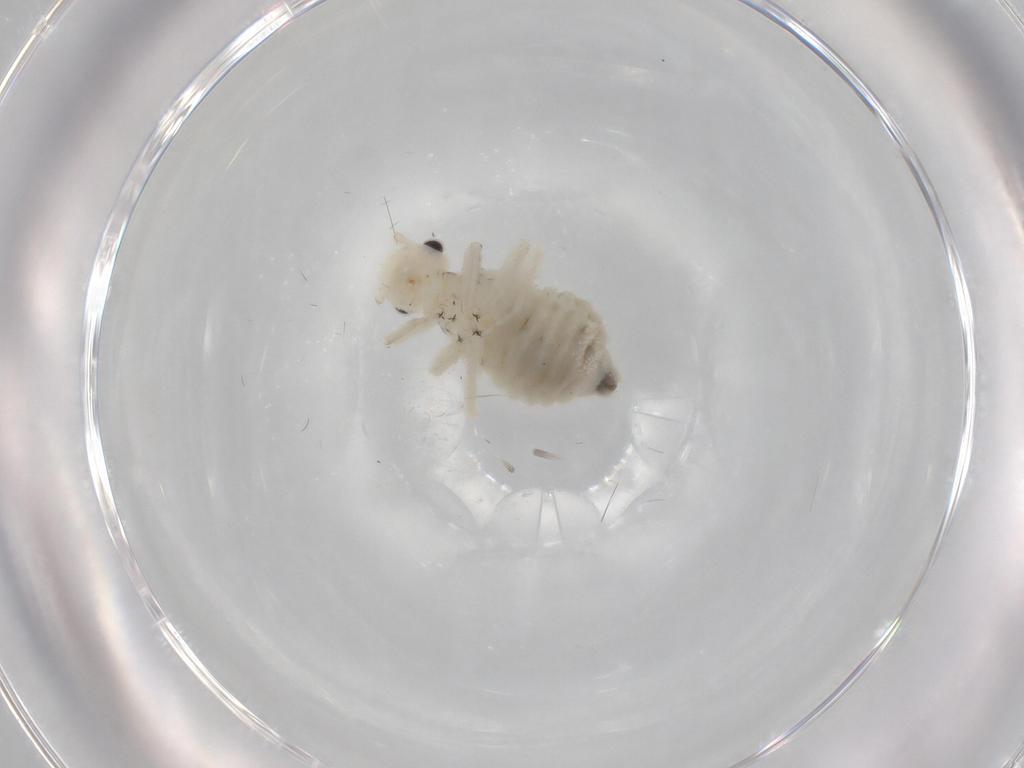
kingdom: Animalia
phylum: Arthropoda
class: Insecta
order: Psocodea
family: Amphipsocidae
